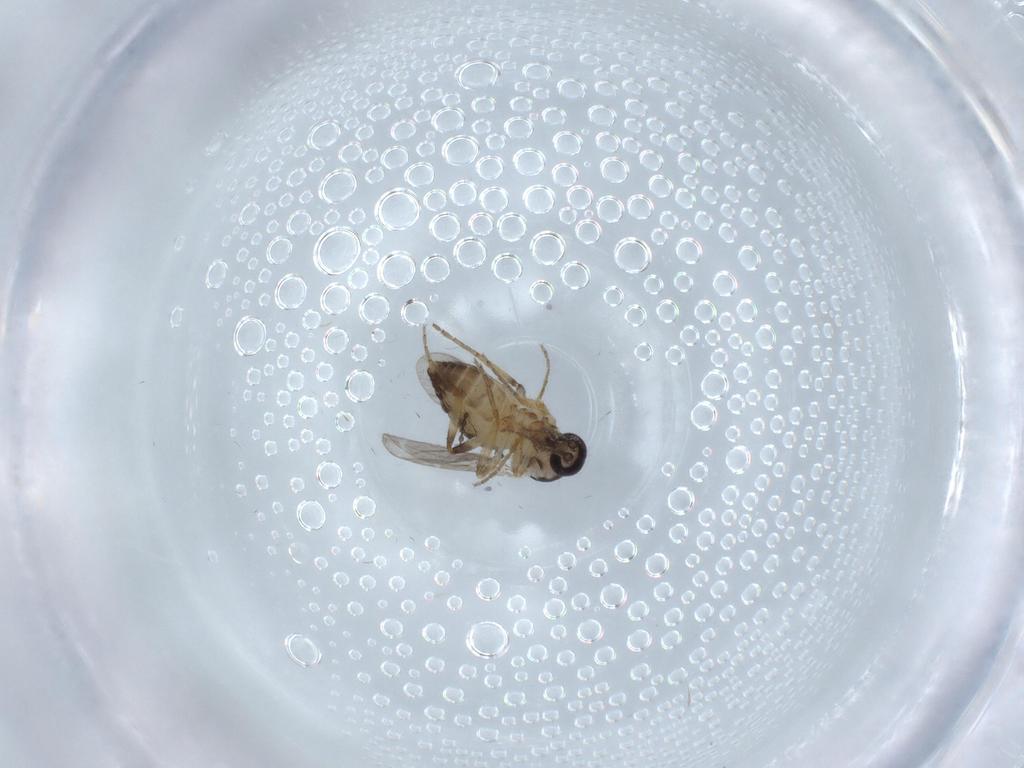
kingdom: Animalia
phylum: Arthropoda
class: Insecta
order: Diptera
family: Ceratopogonidae
